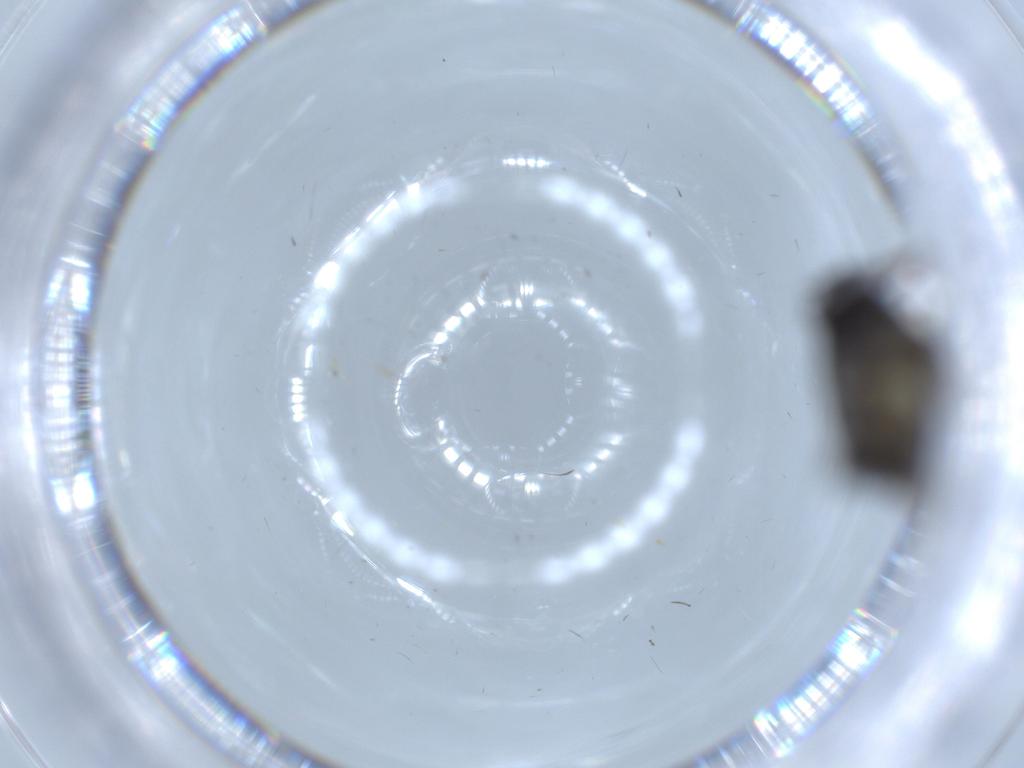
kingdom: Animalia
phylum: Arthropoda
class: Insecta
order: Diptera
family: Sciaridae
